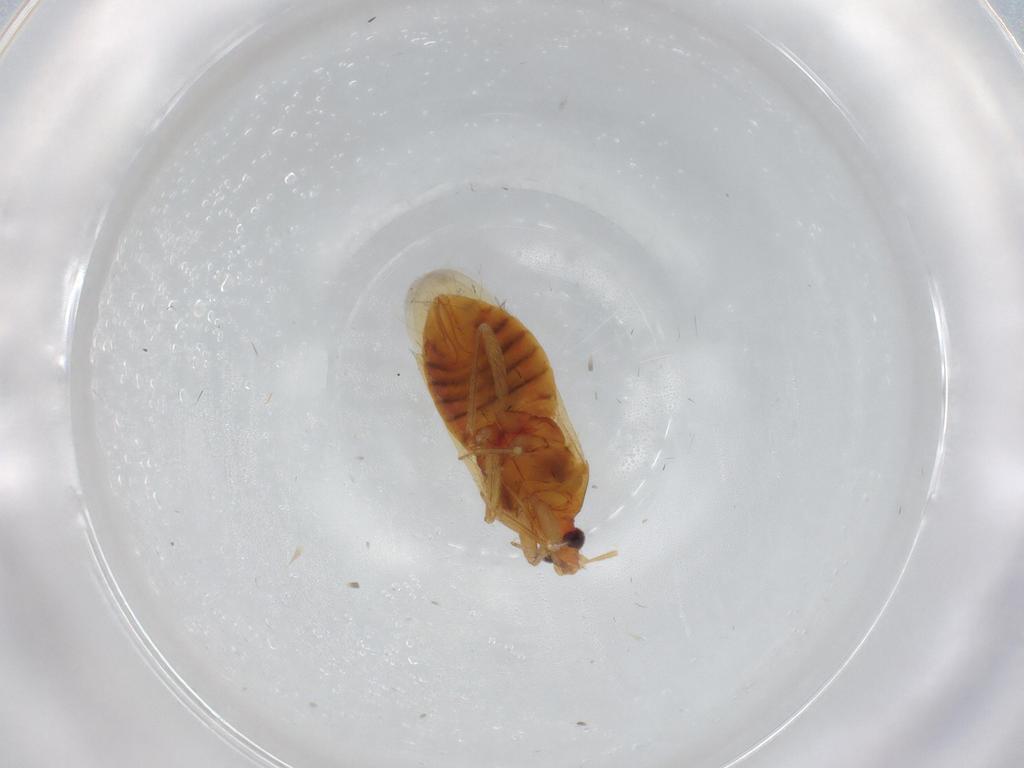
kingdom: Animalia
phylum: Arthropoda
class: Insecta
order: Hemiptera
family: Anthocoridae
